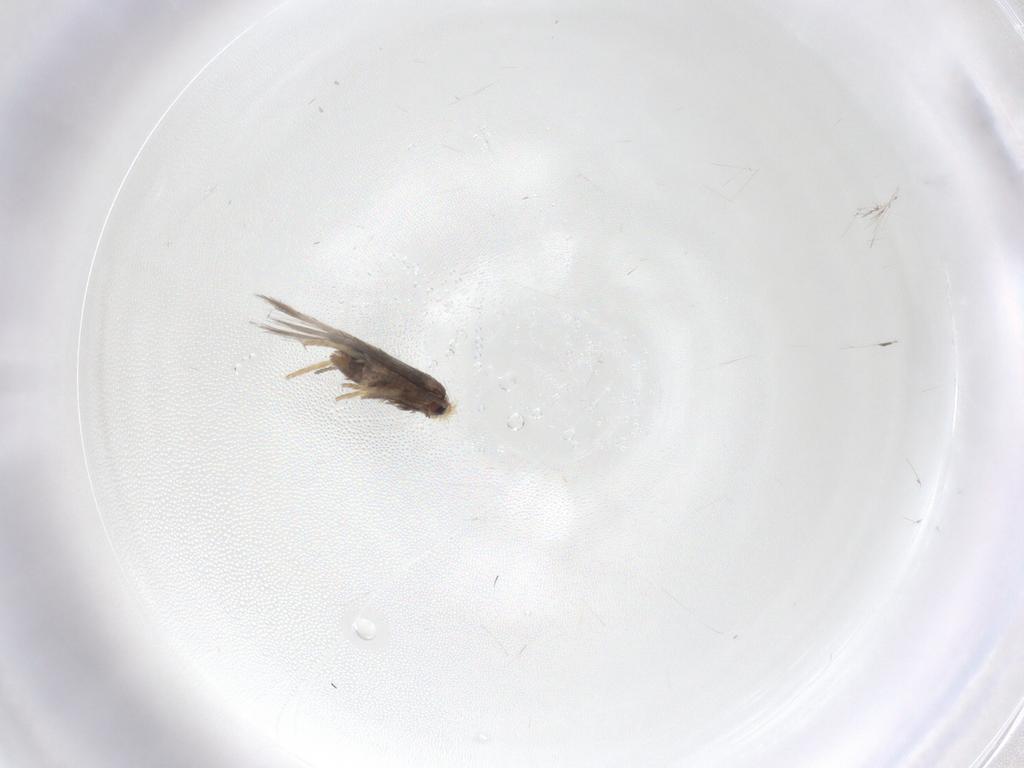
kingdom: Animalia
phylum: Arthropoda
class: Insecta
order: Lepidoptera
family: Nepticulidae
